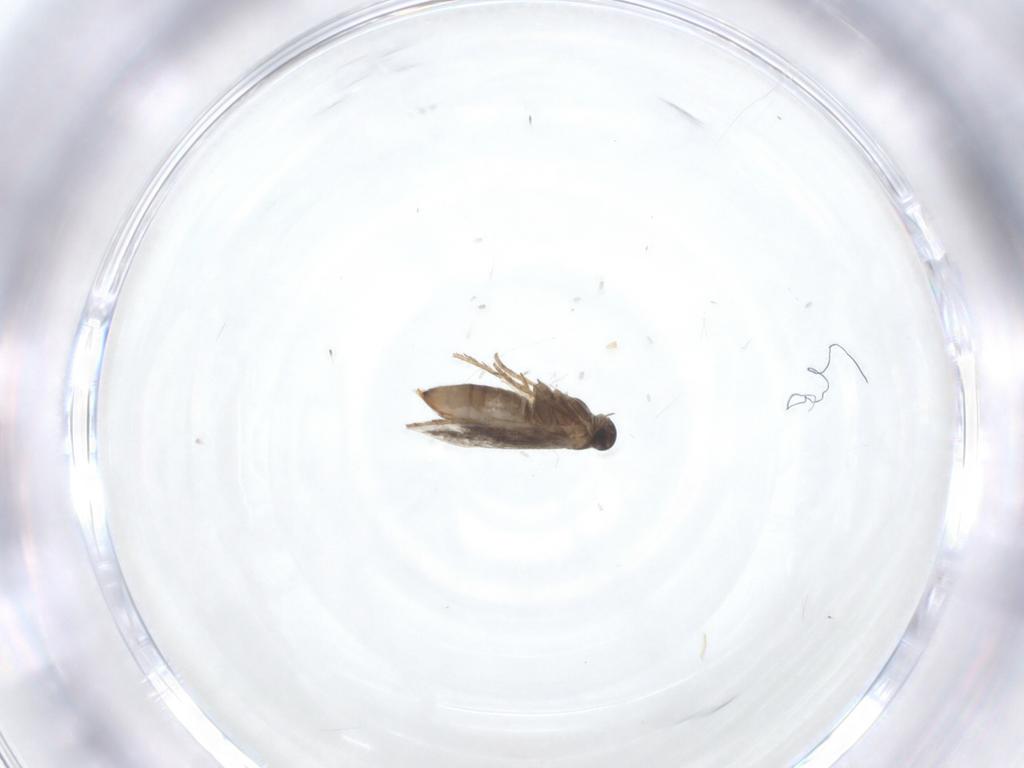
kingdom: Animalia
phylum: Arthropoda
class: Insecta
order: Lepidoptera
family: Heliozelidae
